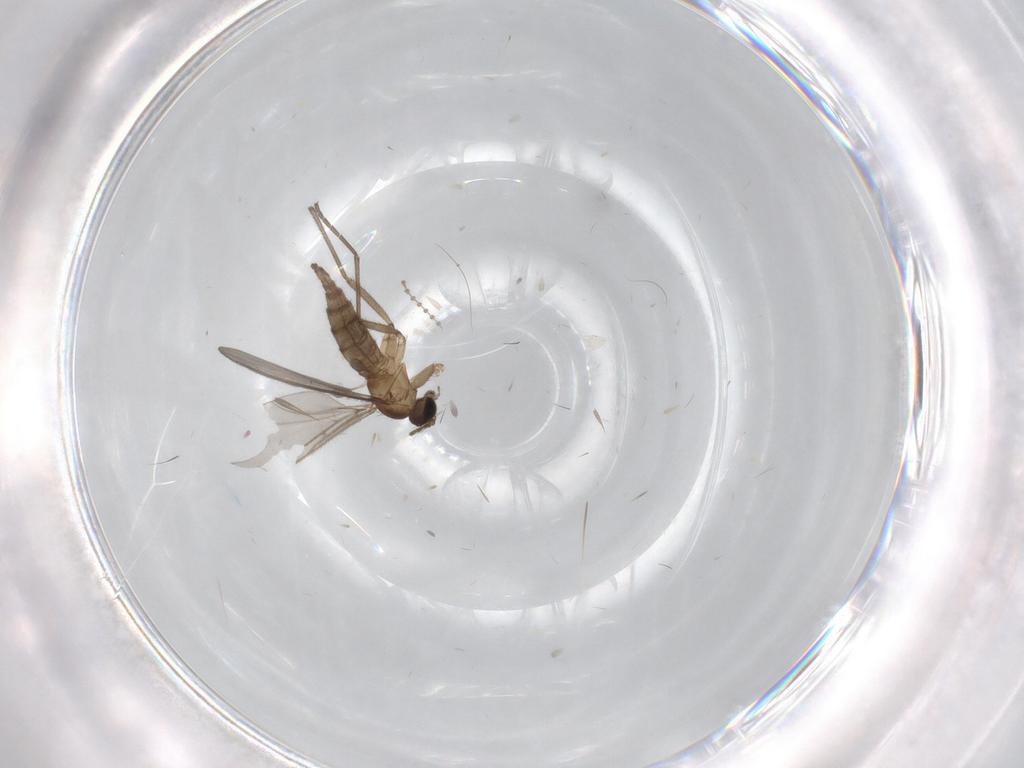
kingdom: Animalia
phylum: Arthropoda
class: Insecta
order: Diptera
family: Sciaridae
